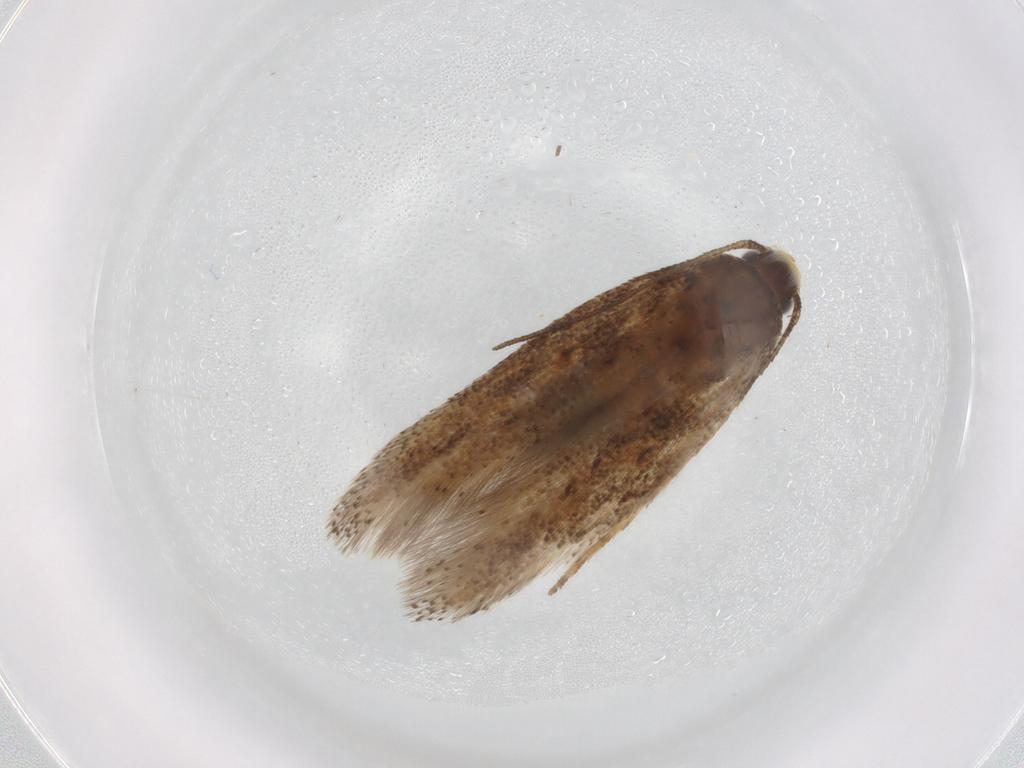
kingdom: Animalia
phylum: Arthropoda
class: Insecta
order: Lepidoptera
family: Gelechiidae
